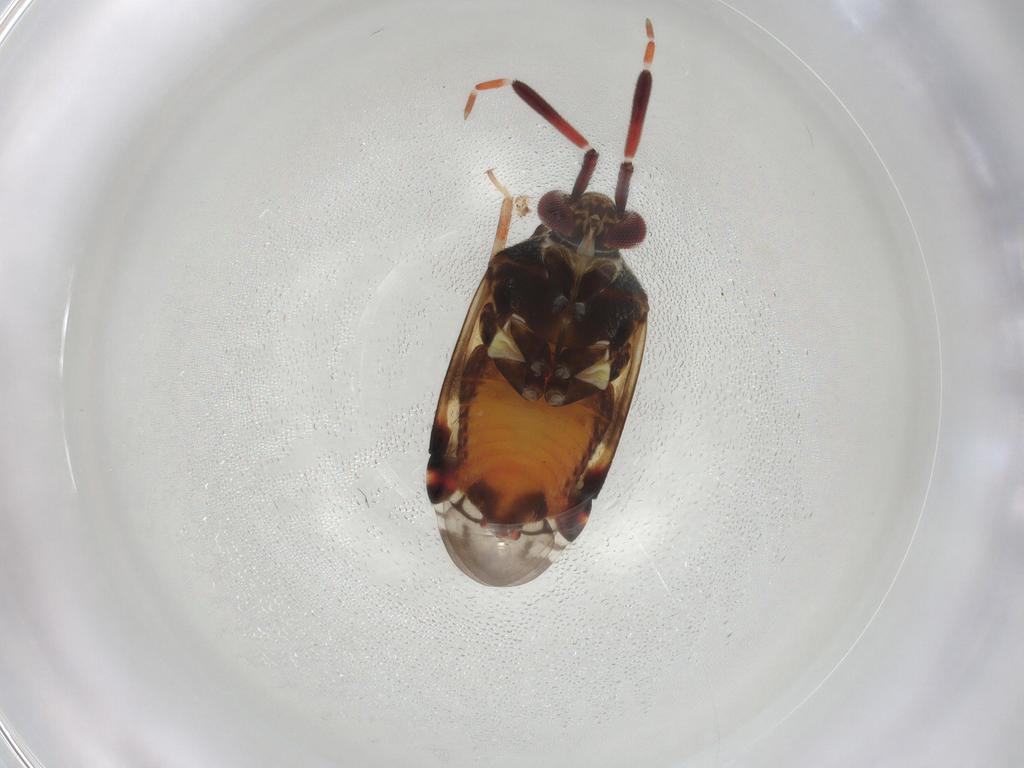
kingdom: Animalia
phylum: Arthropoda
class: Insecta
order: Hemiptera
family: Miridae
